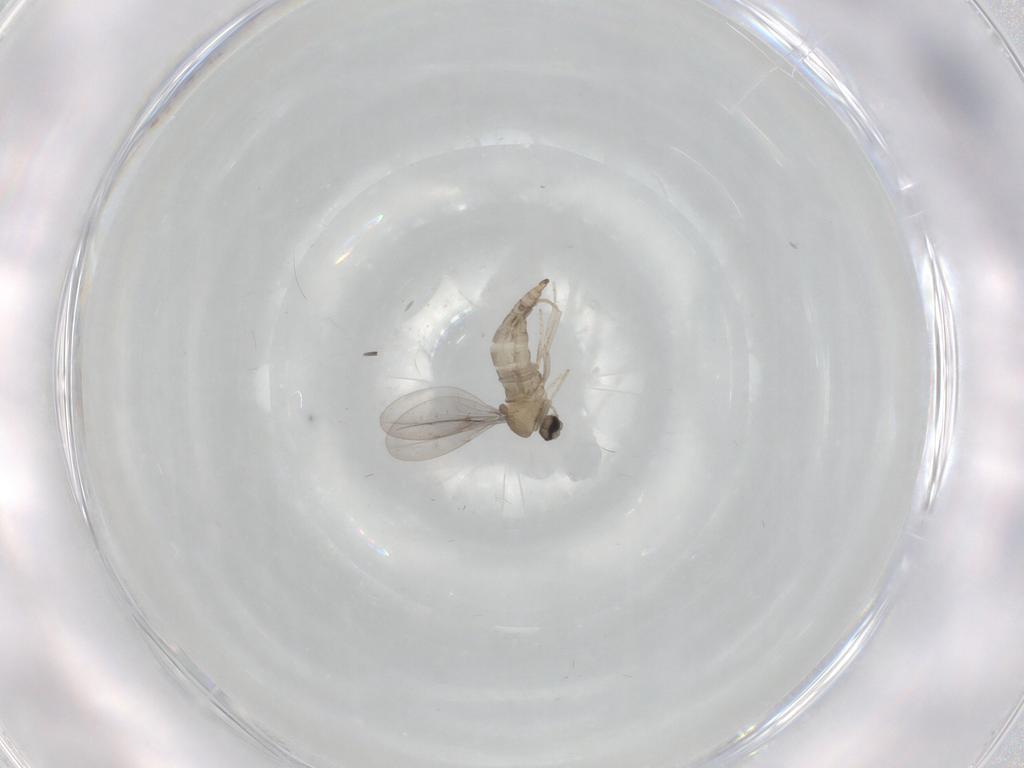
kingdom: Animalia
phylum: Arthropoda
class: Insecta
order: Diptera
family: Cecidomyiidae
